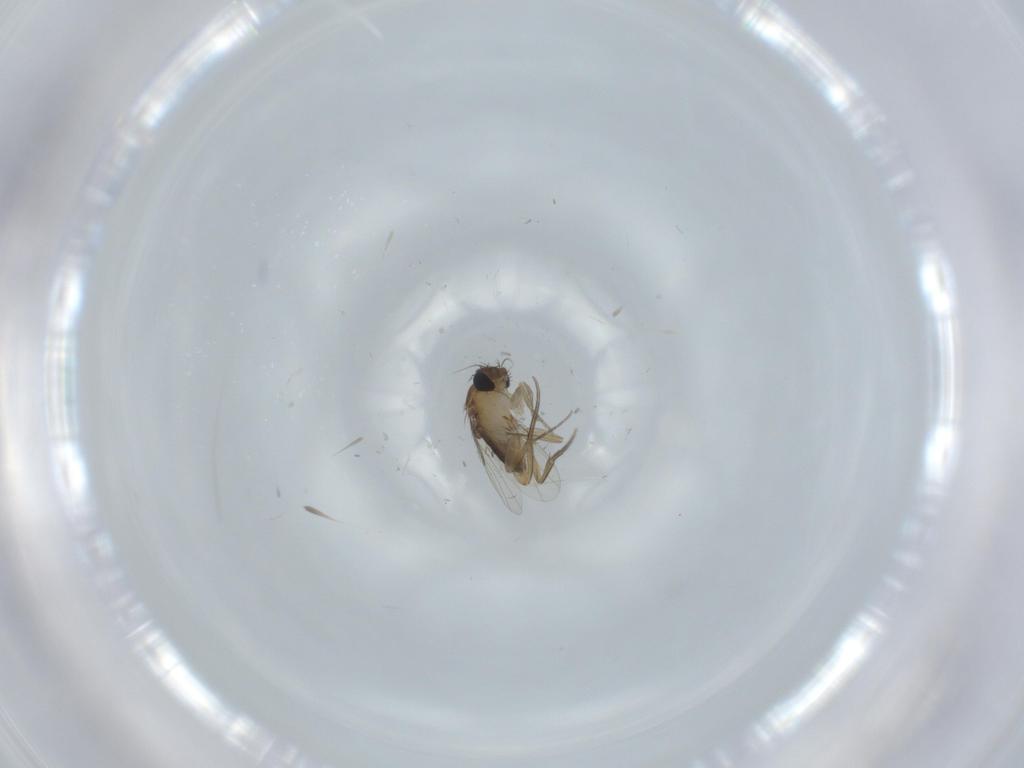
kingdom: Animalia
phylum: Arthropoda
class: Insecta
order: Diptera
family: Phoridae
